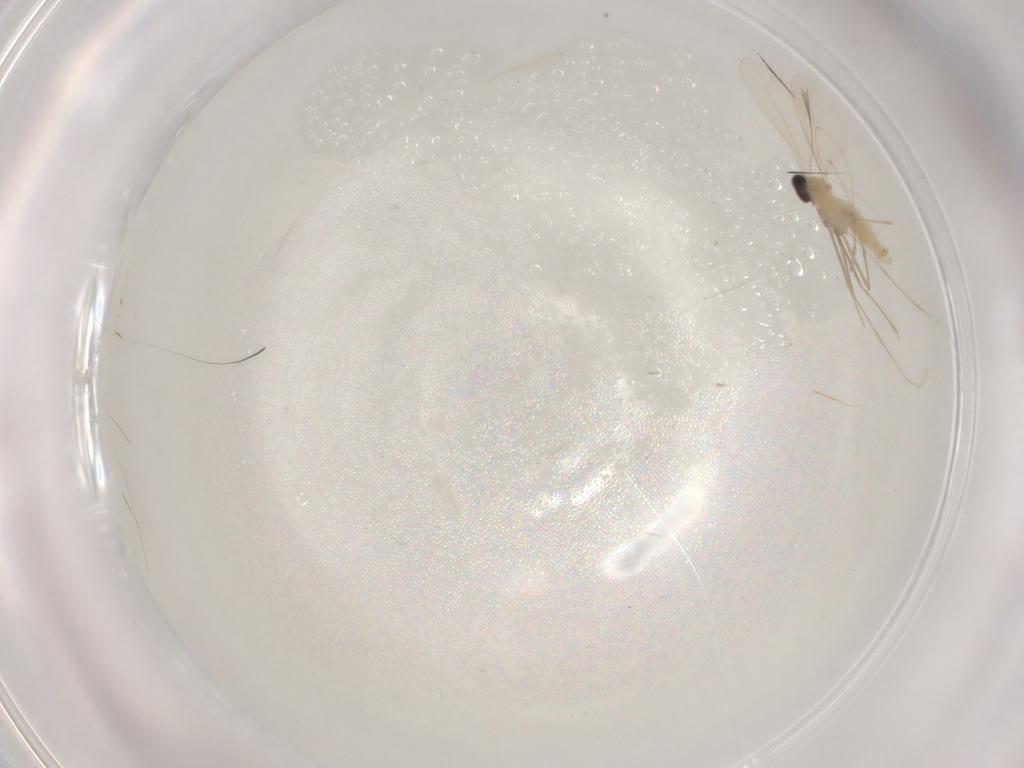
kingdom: Animalia
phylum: Arthropoda
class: Insecta
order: Diptera
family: Cecidomyiidae
